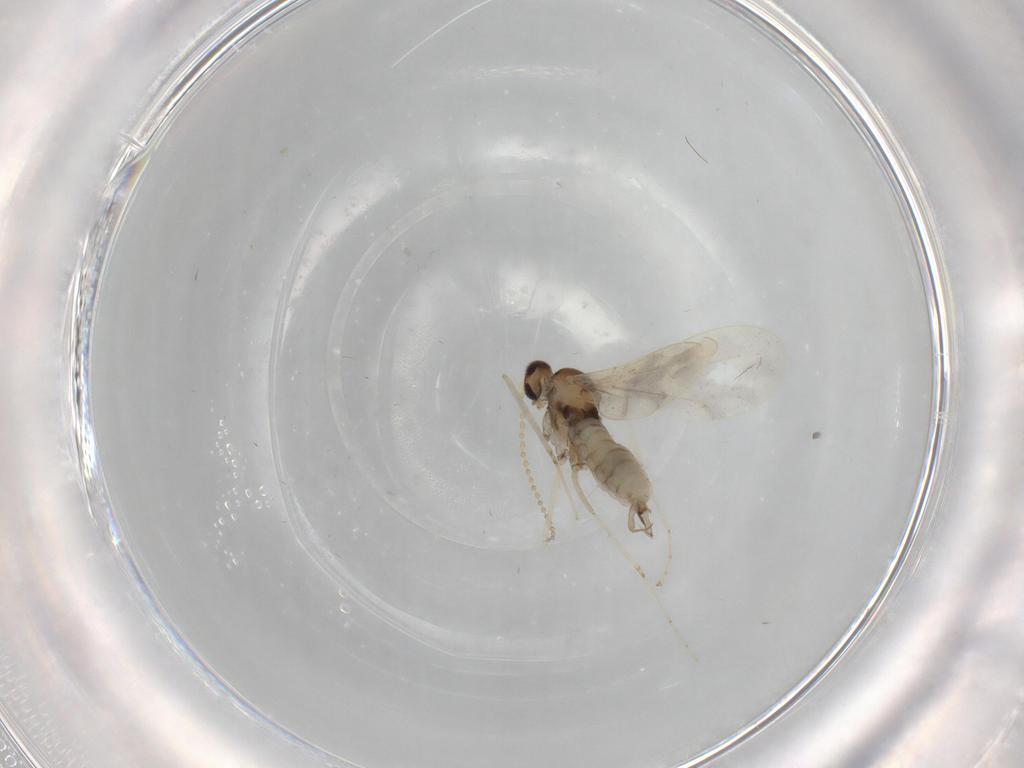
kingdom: Animalia
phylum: Arthropoda
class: Insecta
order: Diptera
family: Cecidomyiidae
